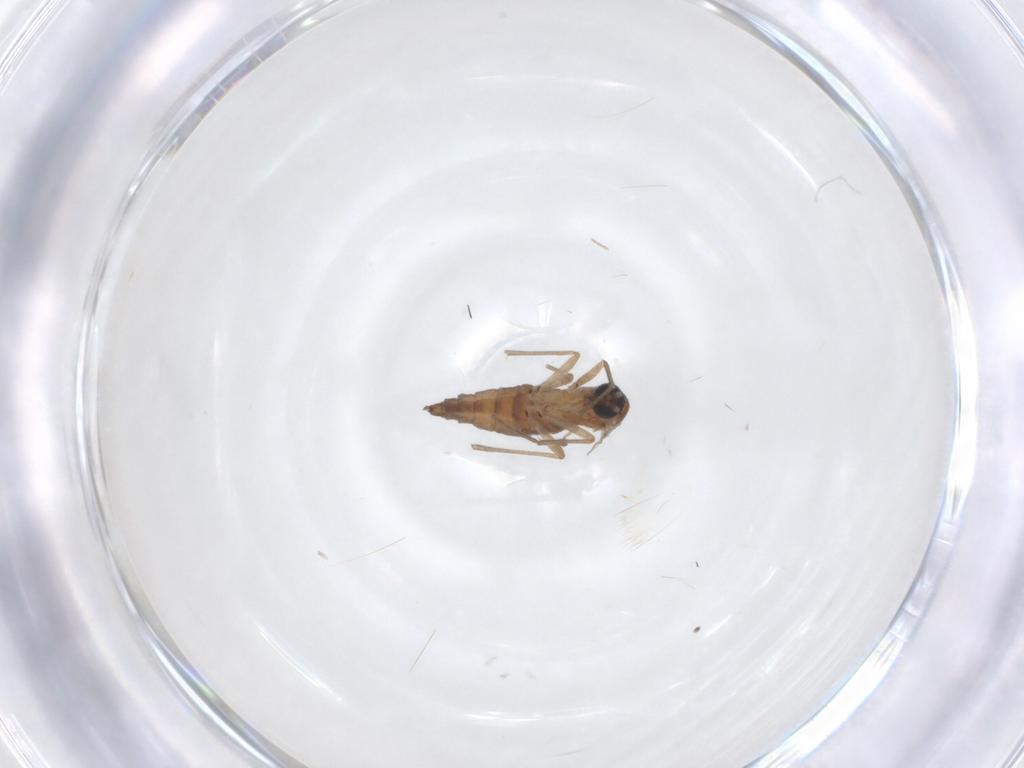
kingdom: Animalia
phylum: Arthropoda
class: Insecta
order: Diptera
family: Sciaridae
